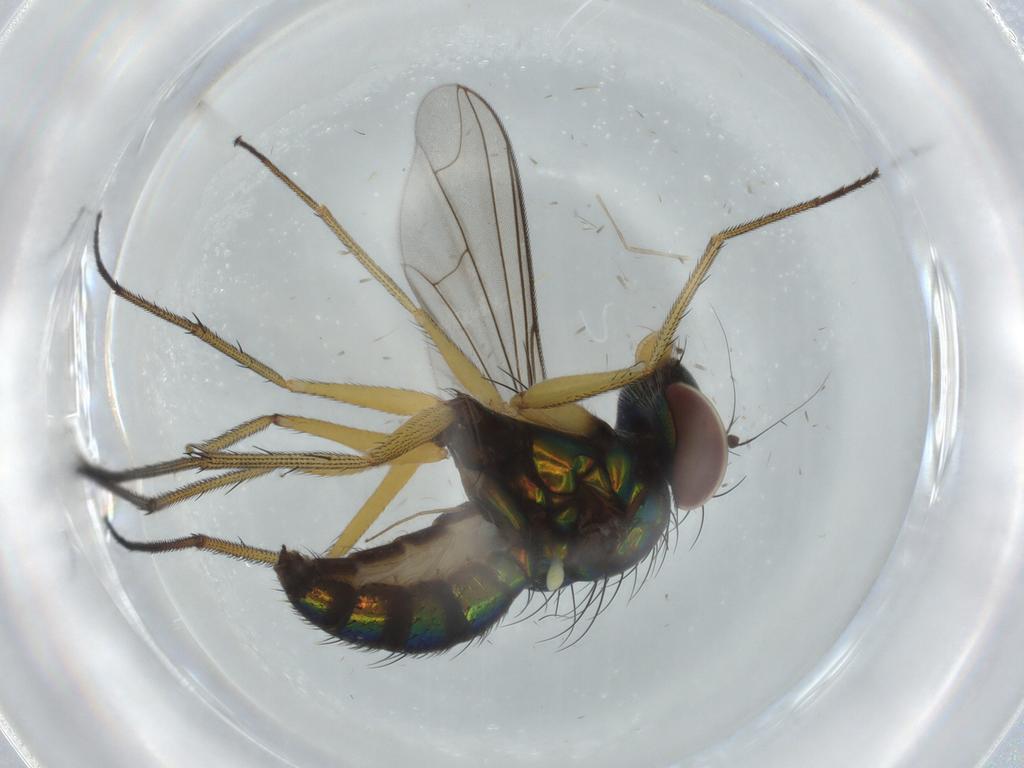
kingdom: Animalia
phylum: Arthropoda
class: Insecta
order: Diptera
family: Dolichopodidae
